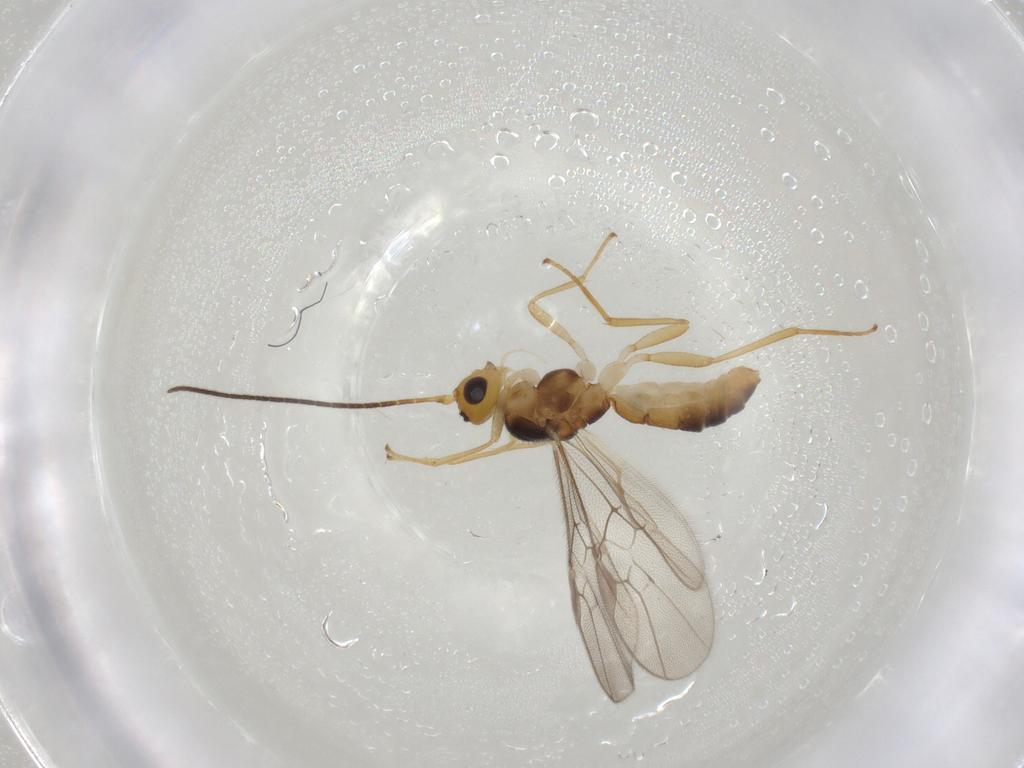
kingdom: Animalia
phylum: Arthropoda
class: Insecta
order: Hymenoptera
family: Braconidae
